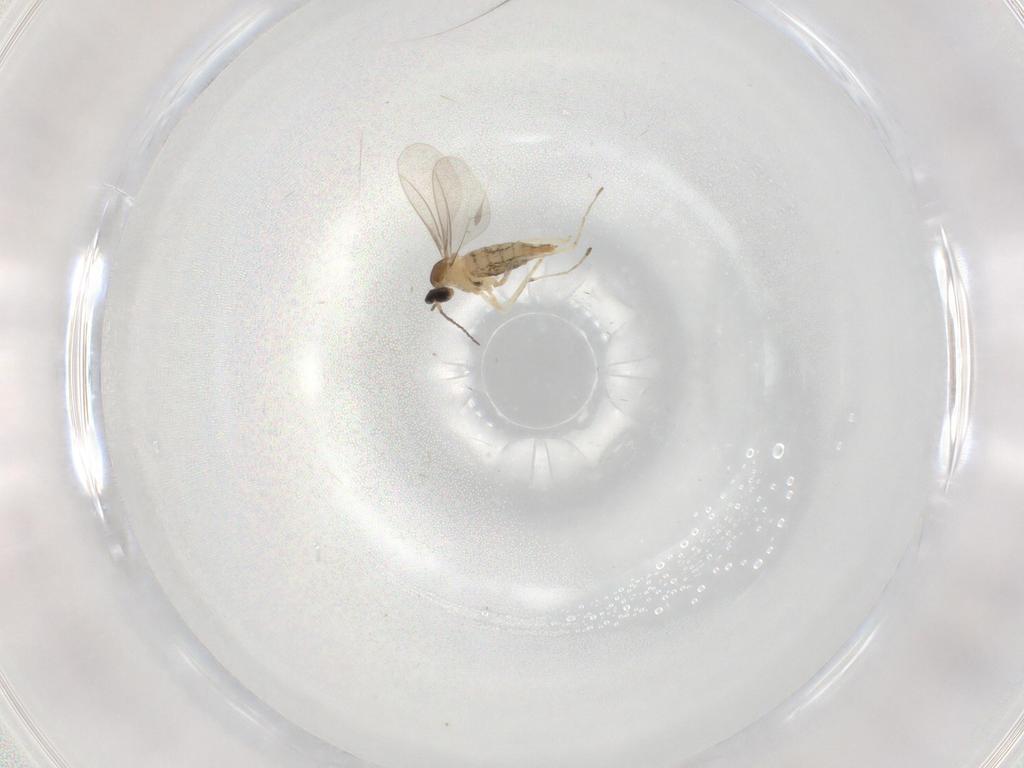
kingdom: Animalia
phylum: Arthropoda
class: Insecta
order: Diptera
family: Cecidomyiidae
